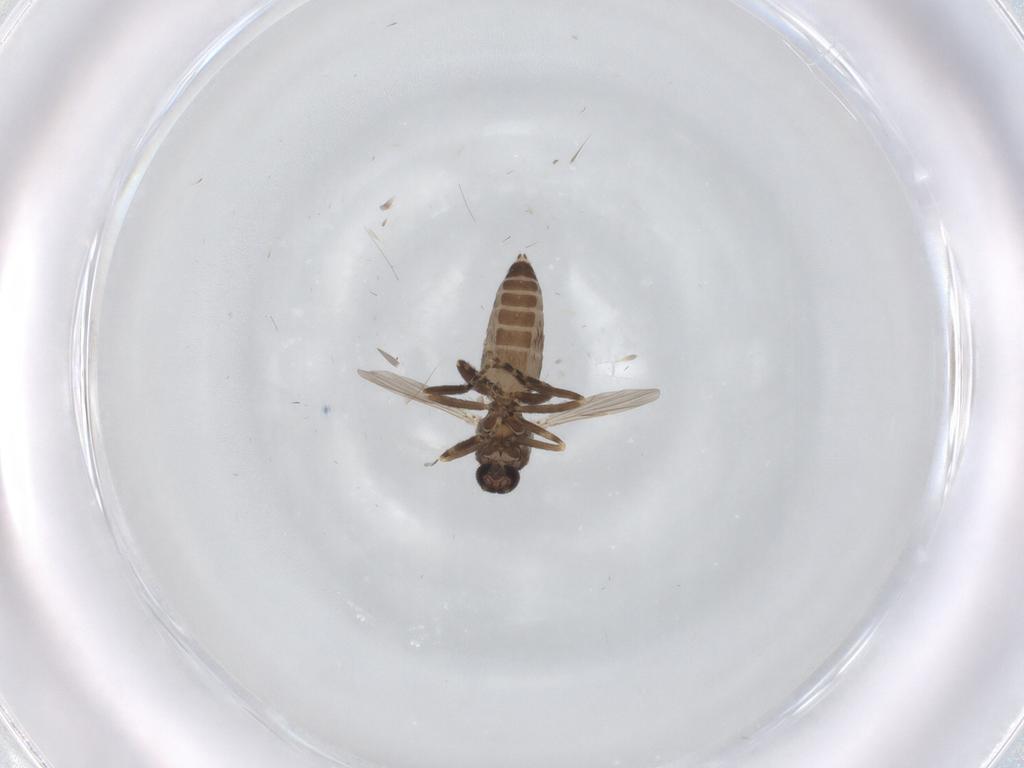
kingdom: Animalia
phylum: Arthropoda
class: Insecta
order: Diptera
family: Ceratopogonidae
